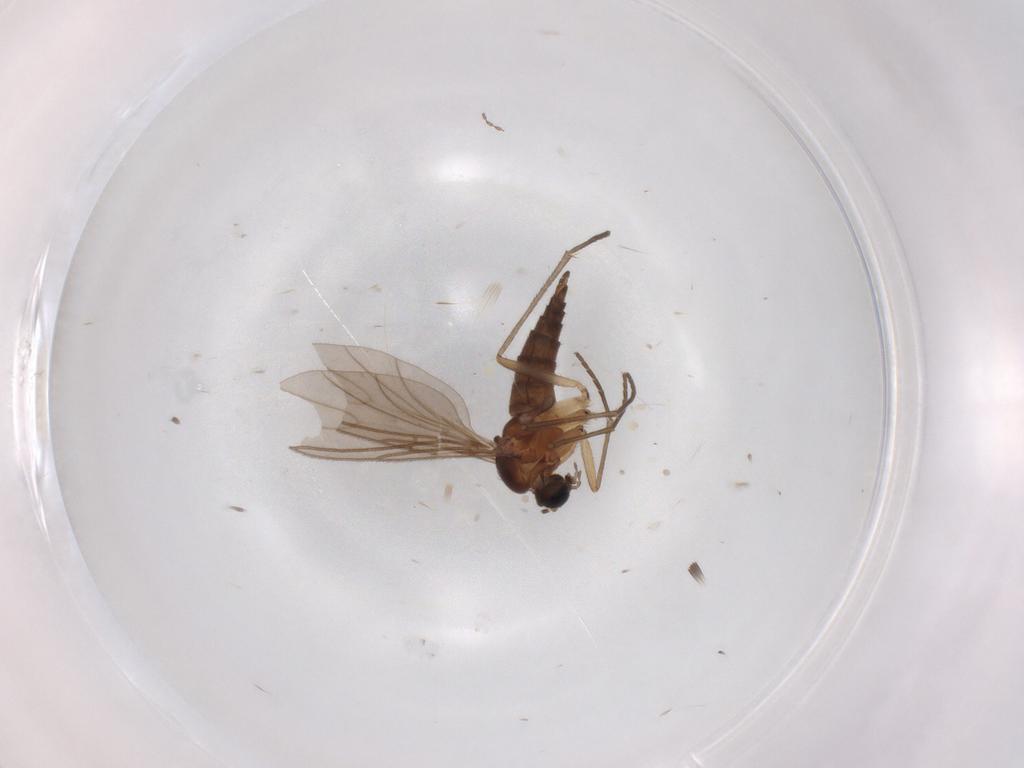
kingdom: Animalia
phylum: Arthropoda
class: Insecta
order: Diptera
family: Sciaridae
